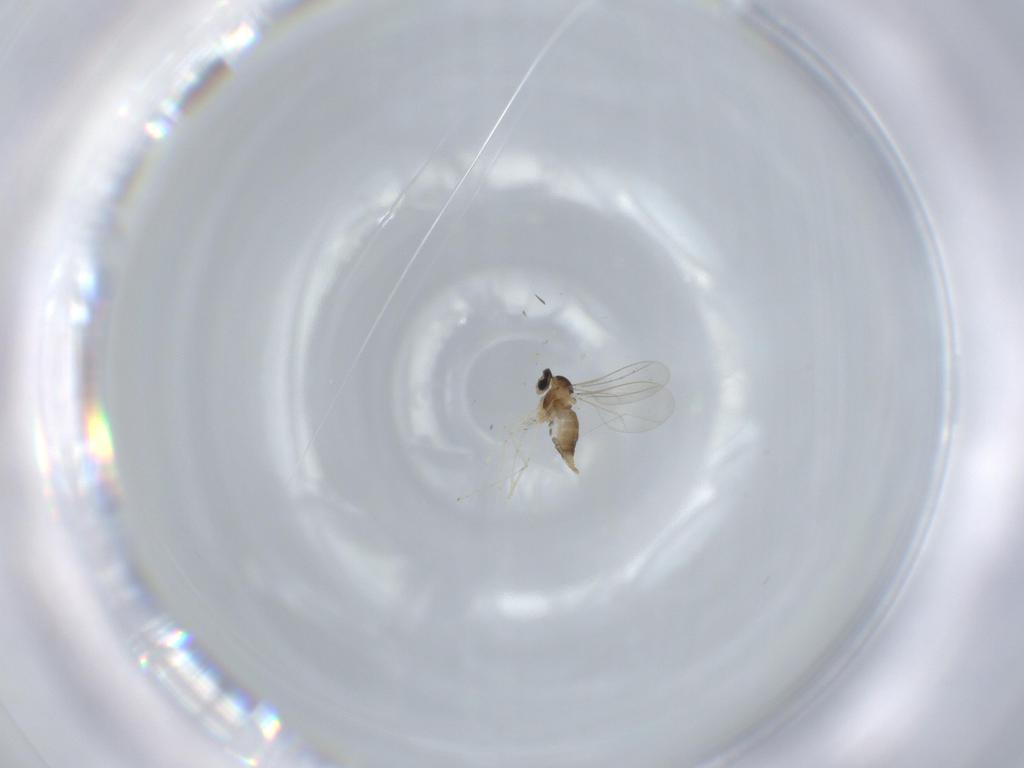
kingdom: Animalia
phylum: Arthropoda
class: Insecta
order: Diptera
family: Cecidomyiidae
